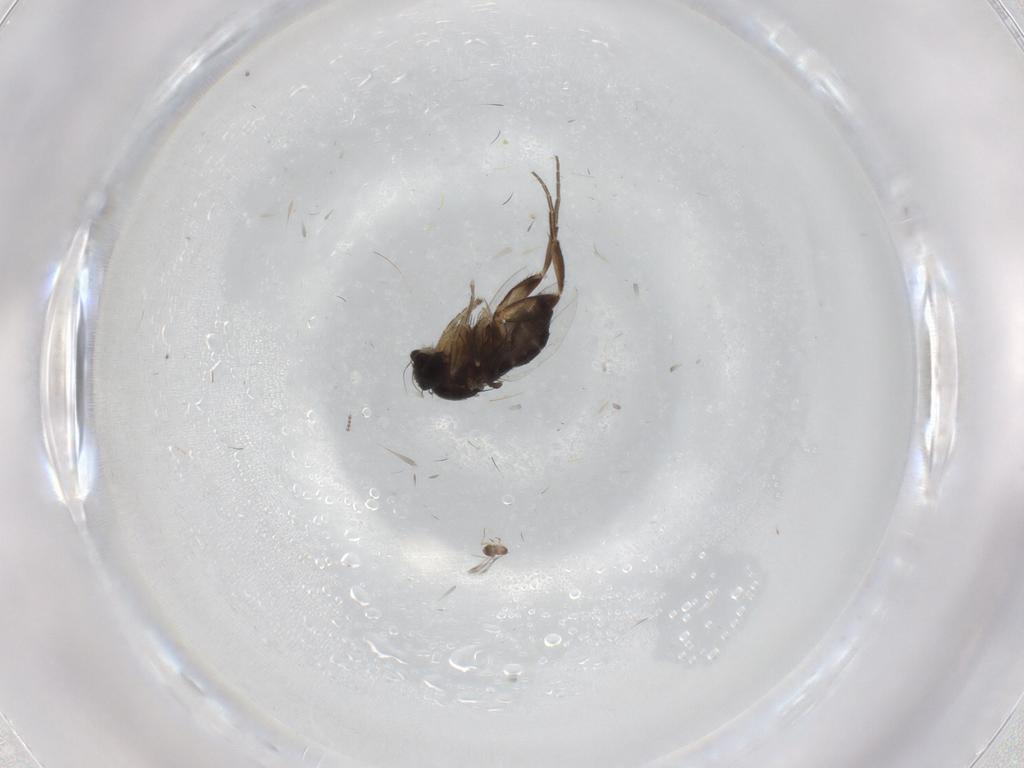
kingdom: Animalia
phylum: Arthropoda
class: Insecta
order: Diptera
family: Phoridae
